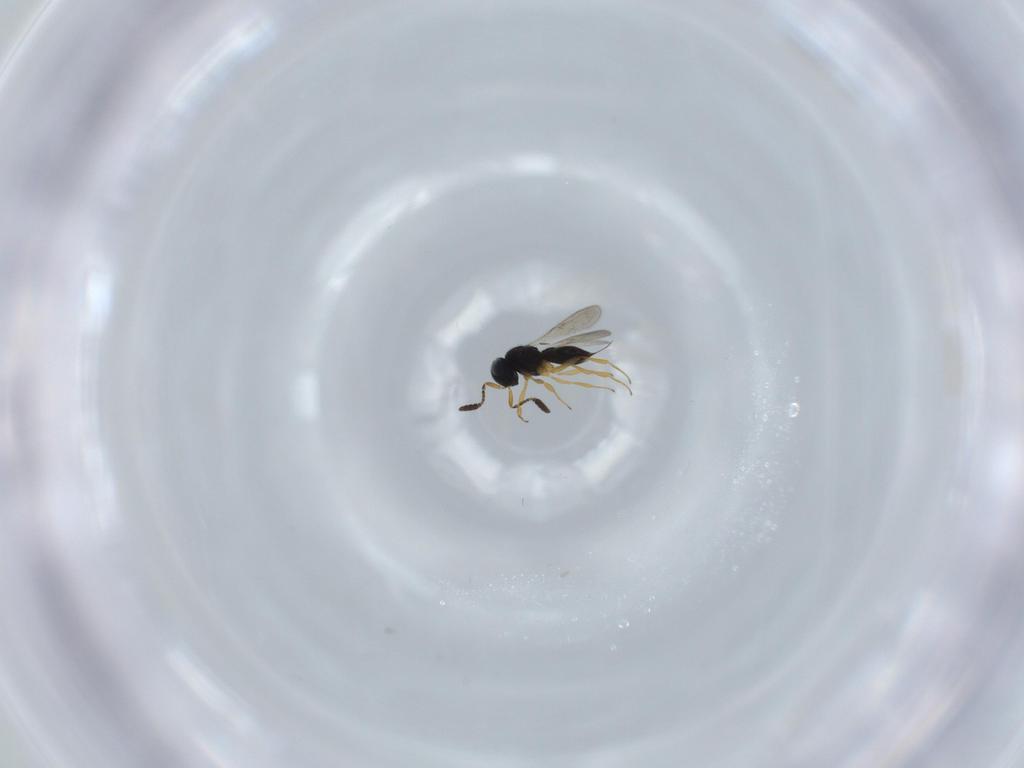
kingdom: Animalia
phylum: Arthropoda
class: Insecta
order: Hymenoptera
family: Scelionidae
